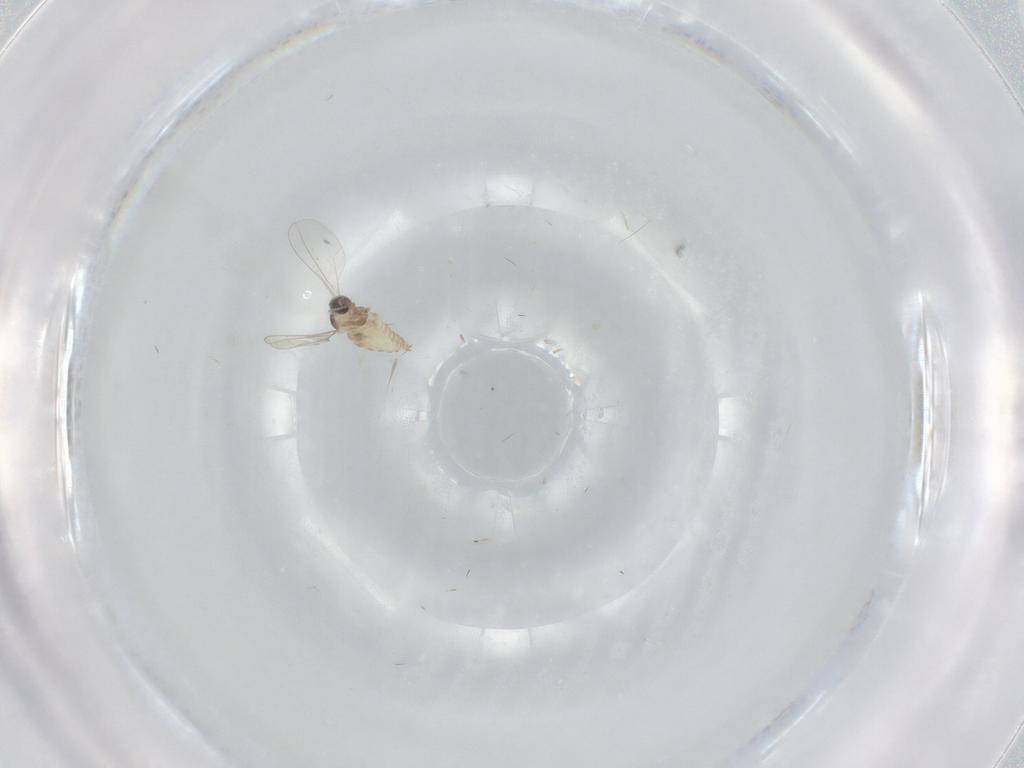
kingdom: Animalia
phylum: Arthropoda
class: Insecta
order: Diptera
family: Cecidomyiidae
